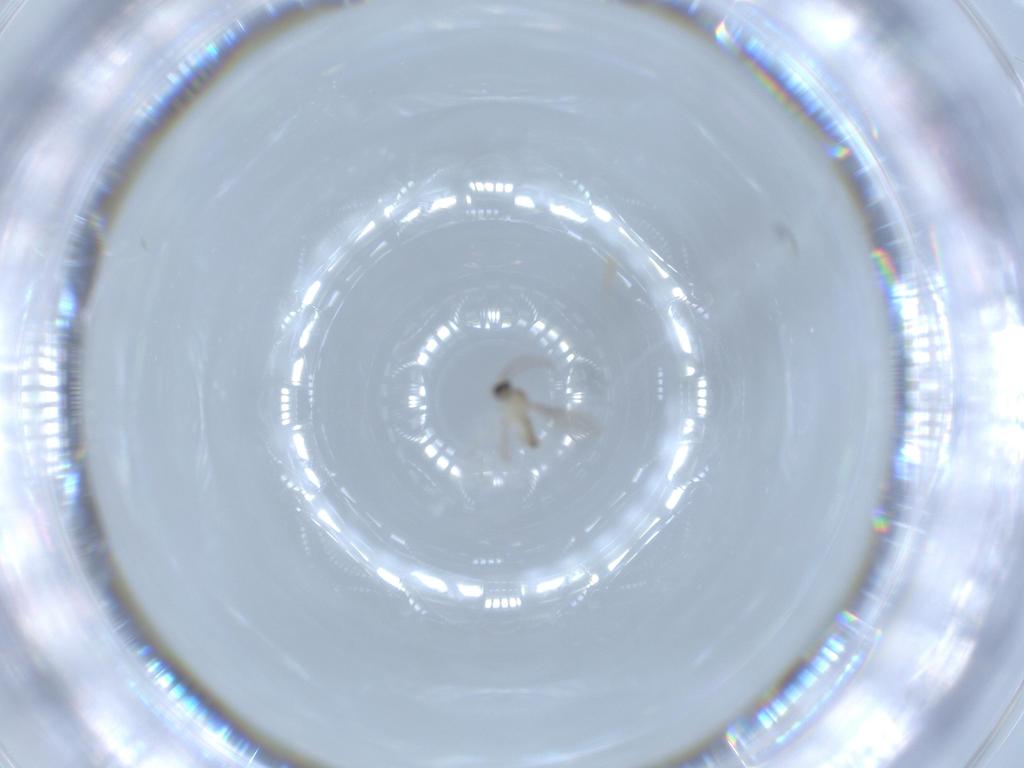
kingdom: Animalia
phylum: Arthropoda
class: Insecta
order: Diptera
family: Cecidomyiidae
